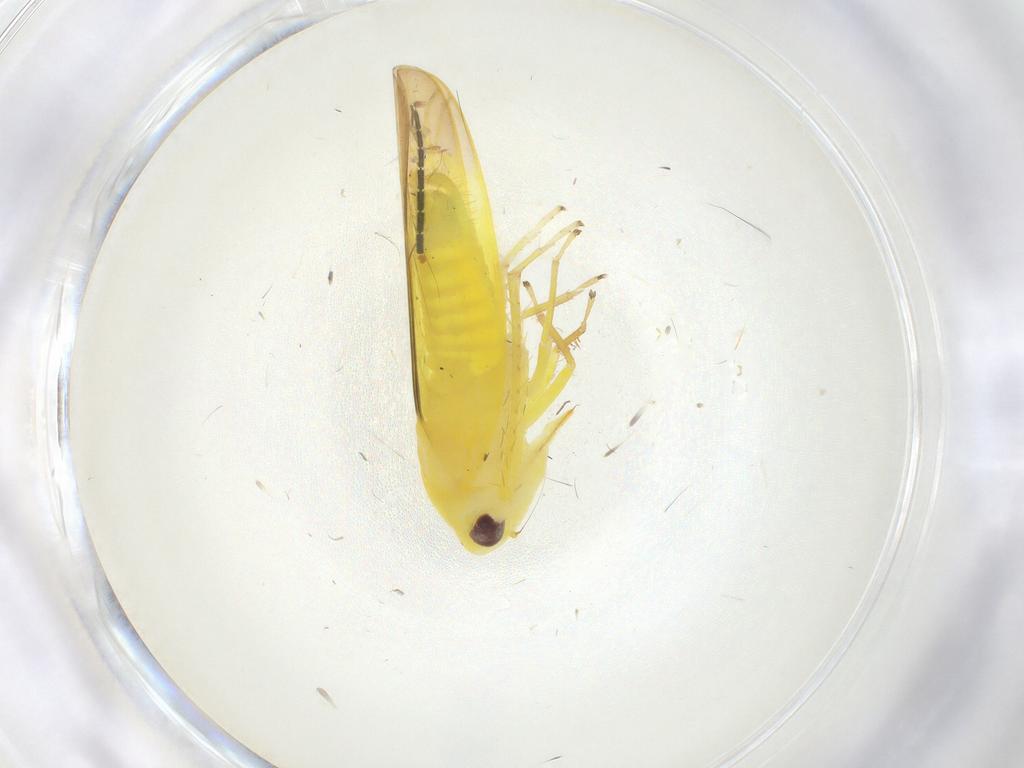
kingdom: Animalia
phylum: Arthropoda
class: Insecta
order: Hemiptera
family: Cicadellidae
